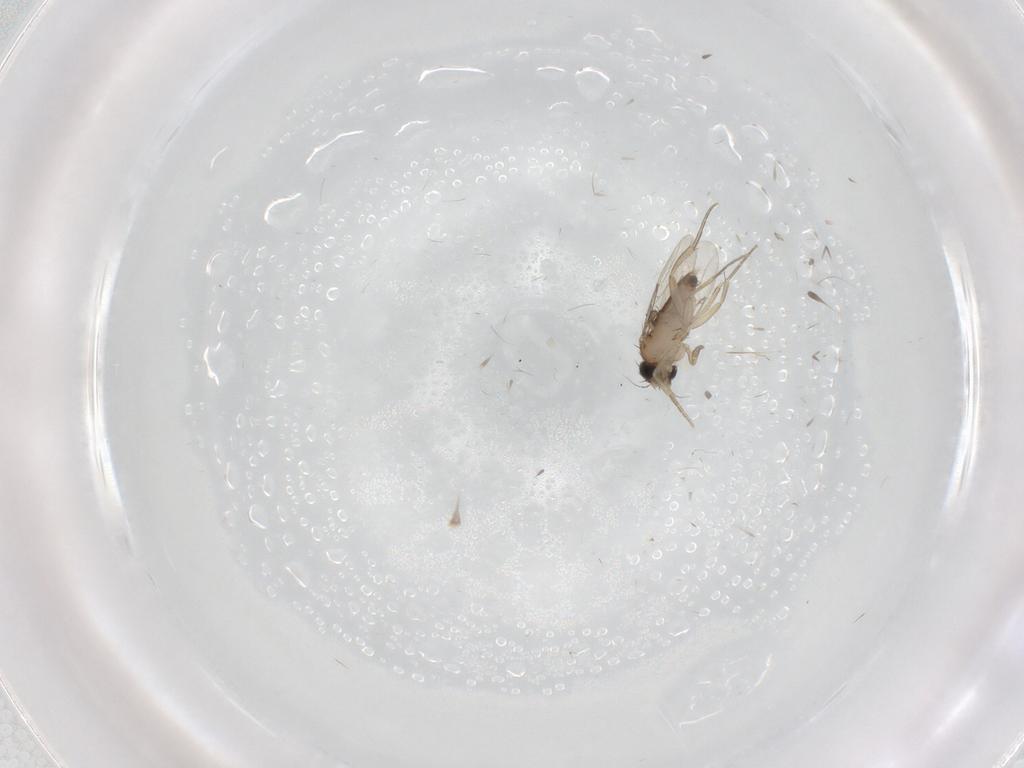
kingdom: Animalia
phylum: Arthropoda
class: Insecta
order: Diptera
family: Phoridae
